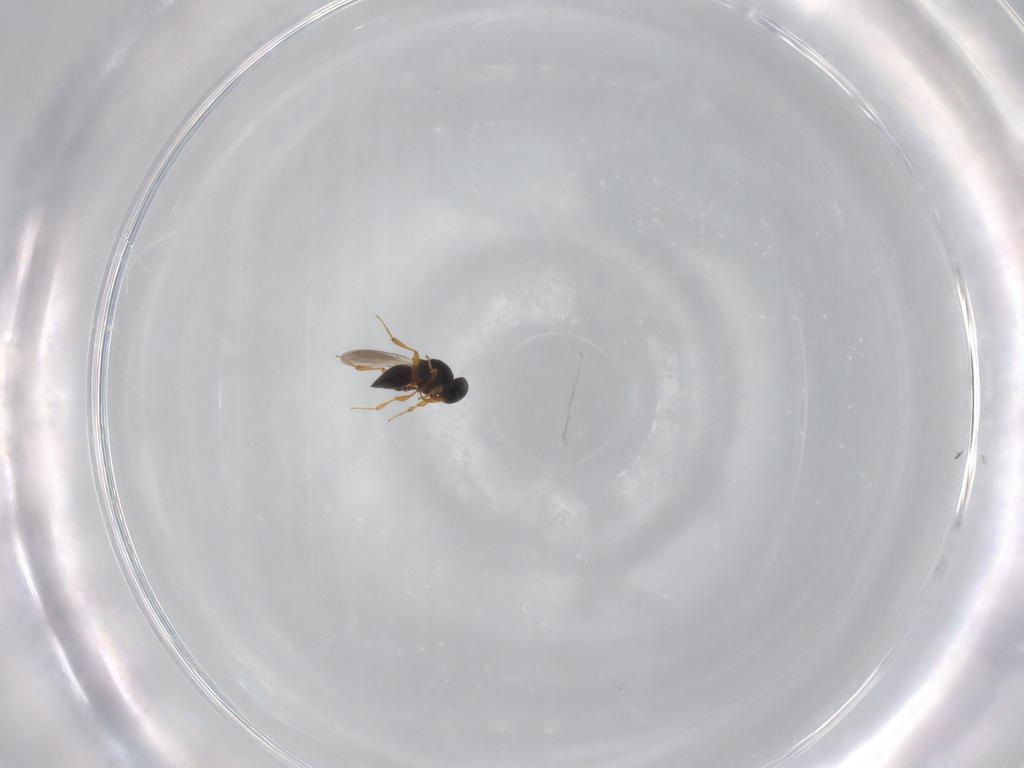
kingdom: Animalia
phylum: Arthropoda
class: Insecta
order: Hymenoptera
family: Platygastridae
